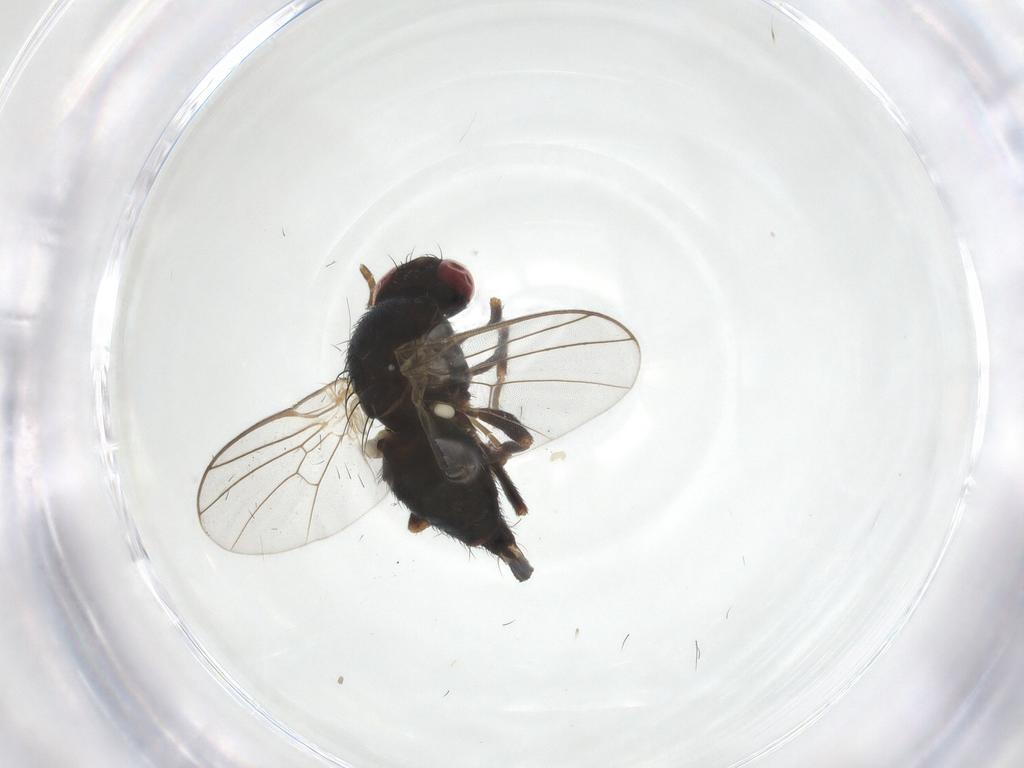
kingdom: Animalia
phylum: Arthropoda
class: Insecta
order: Diptera
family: Agromyzidae
